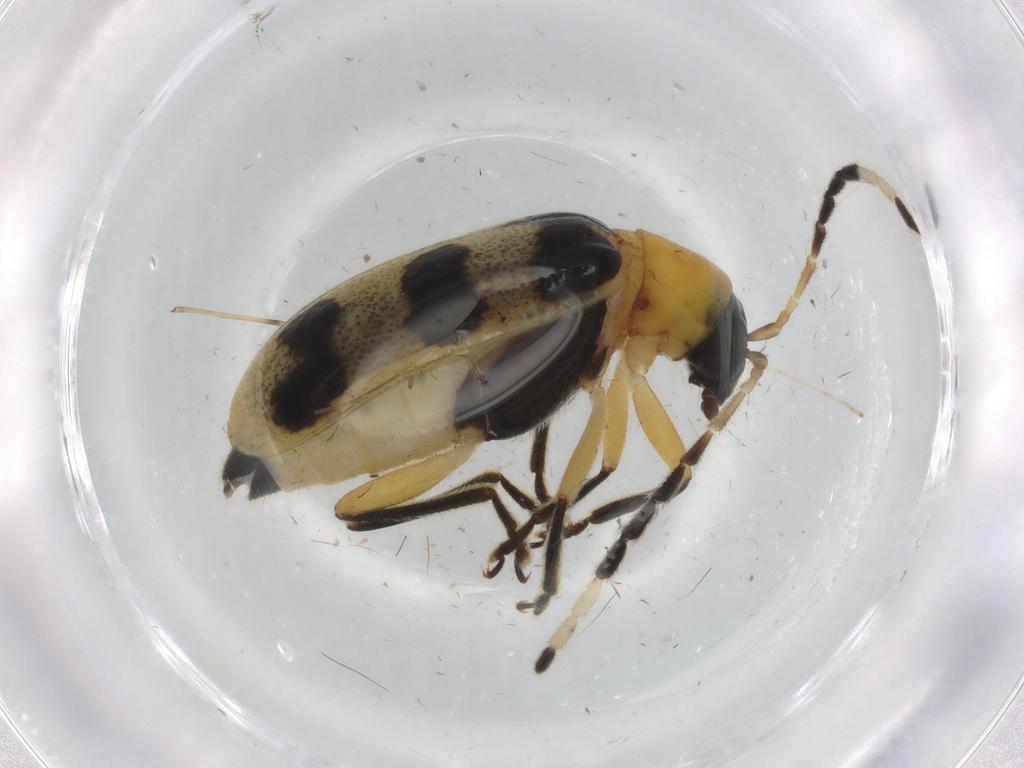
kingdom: Animalia
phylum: Arthropoda
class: Insecta
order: Coleoptera
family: Chrysomelidae
